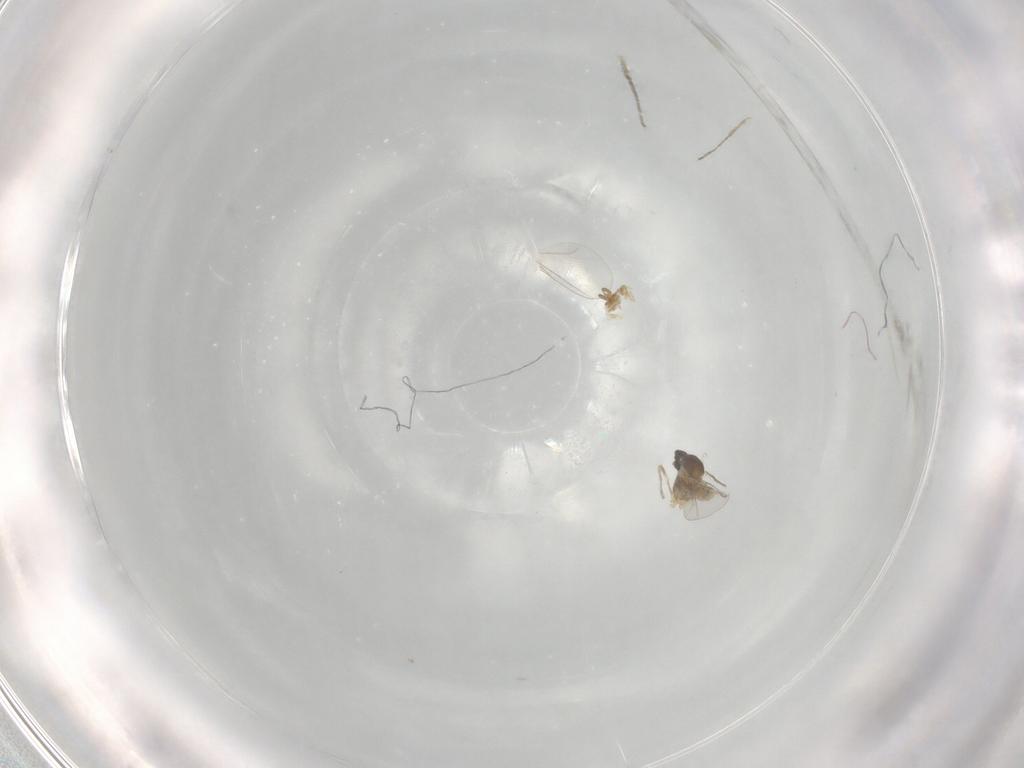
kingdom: Animalia
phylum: Arthropoda
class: Insecta
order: Diptera
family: Cecidomyiidae
